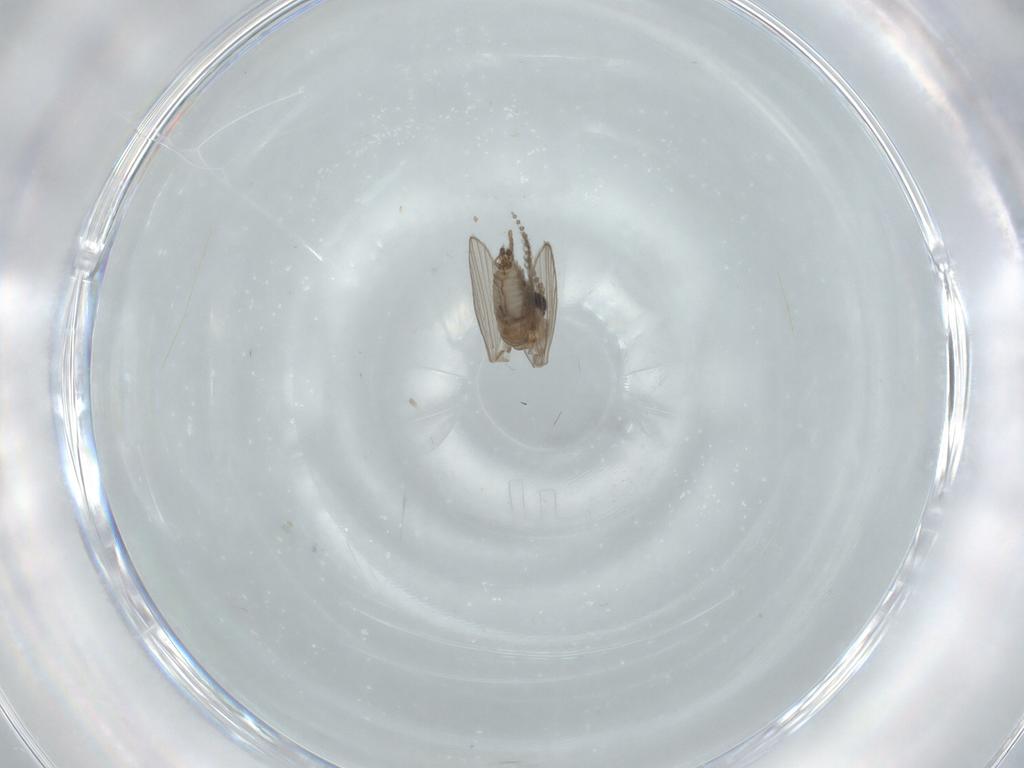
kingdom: Animalia
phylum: Arthropoda
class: Insecta
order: Diptera
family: Psychodidae
